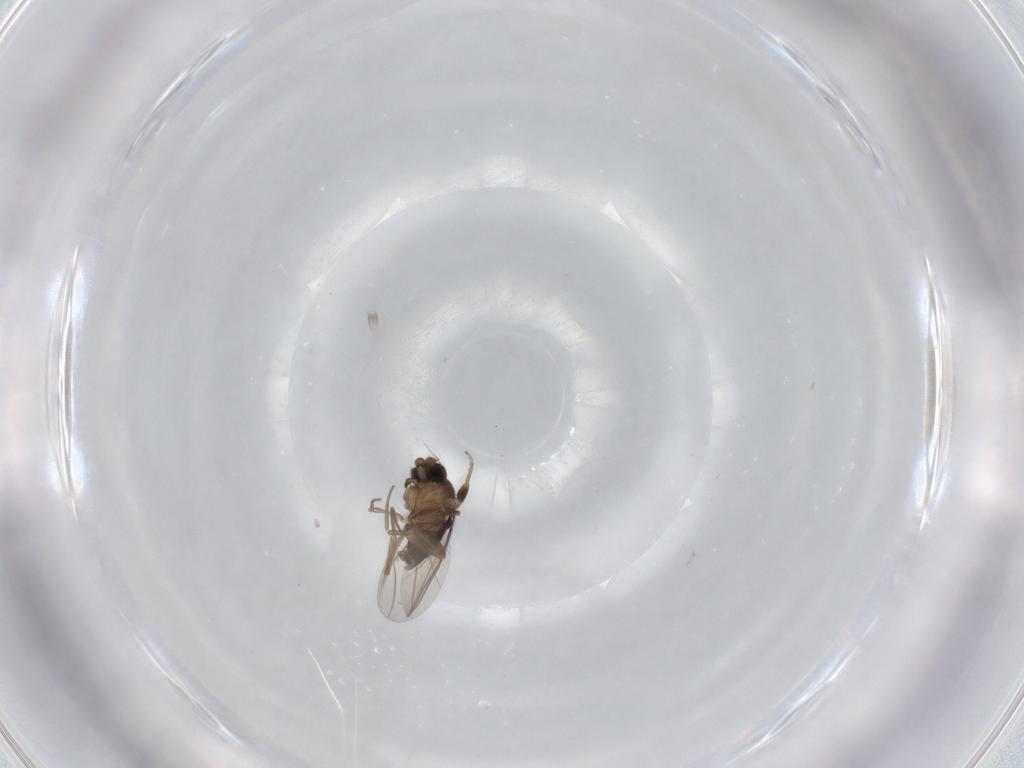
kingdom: Animalia
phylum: Arthropoda
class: Insecta
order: Diptera
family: Phoridae
